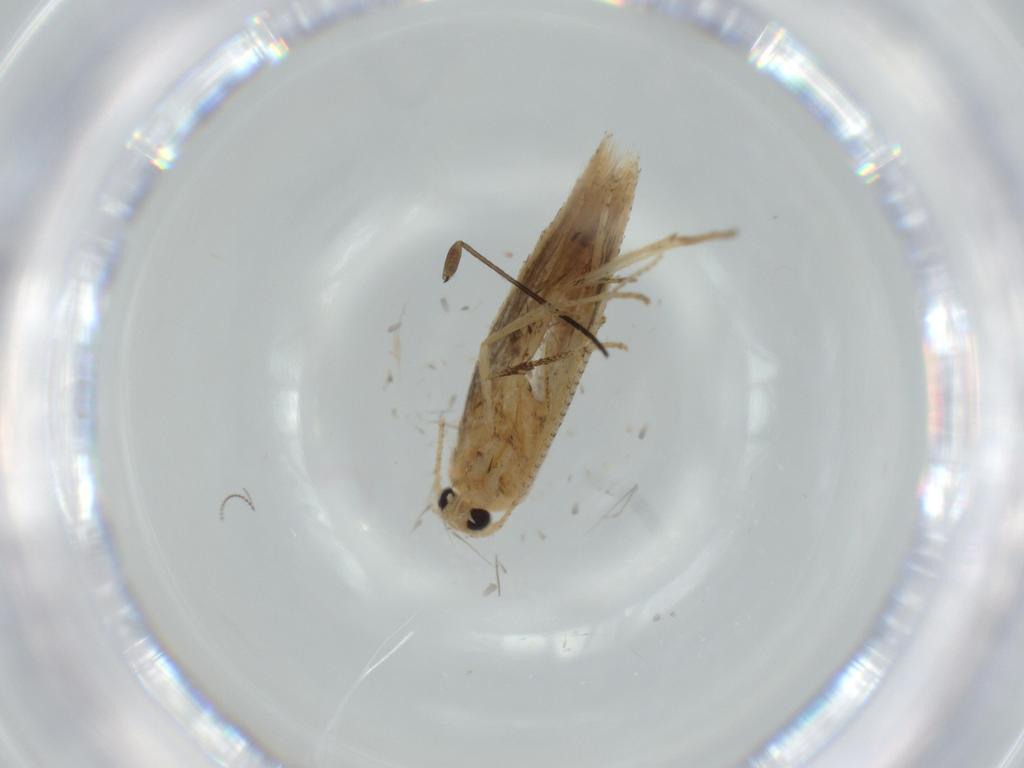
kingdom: Animalia
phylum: Arthropoda
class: Insecta
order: Lepidoptera
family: Bedelliidae
